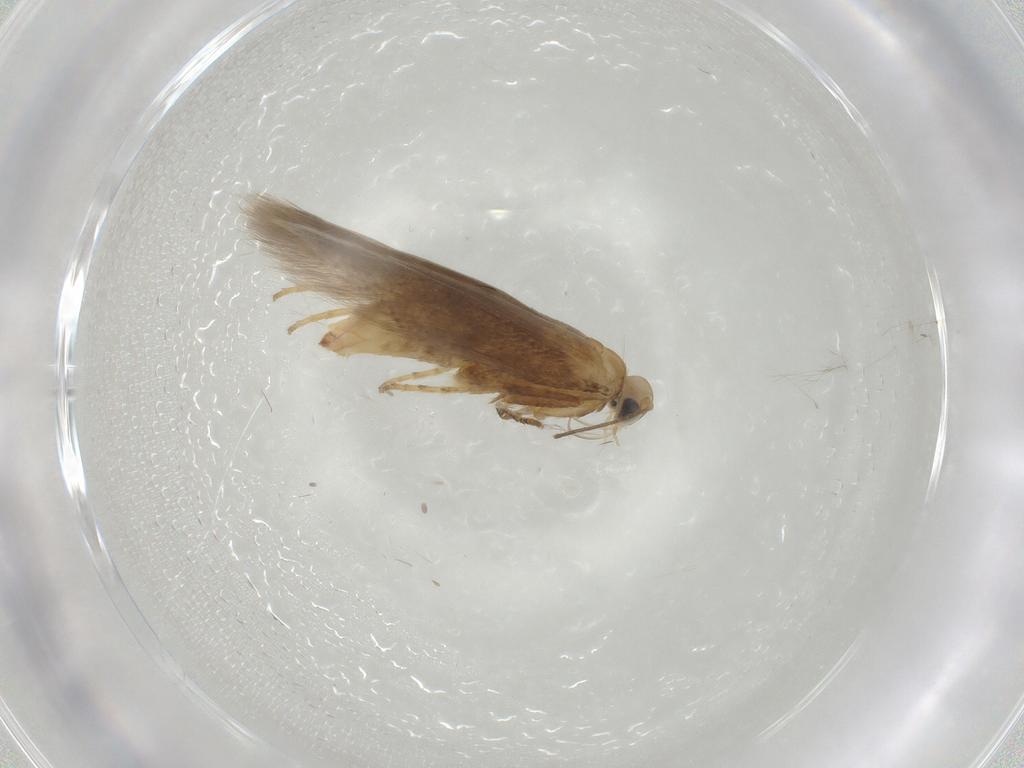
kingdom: Animalia
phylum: Arthropoda
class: Insecta
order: Lepidoptera
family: Tischeriidae
